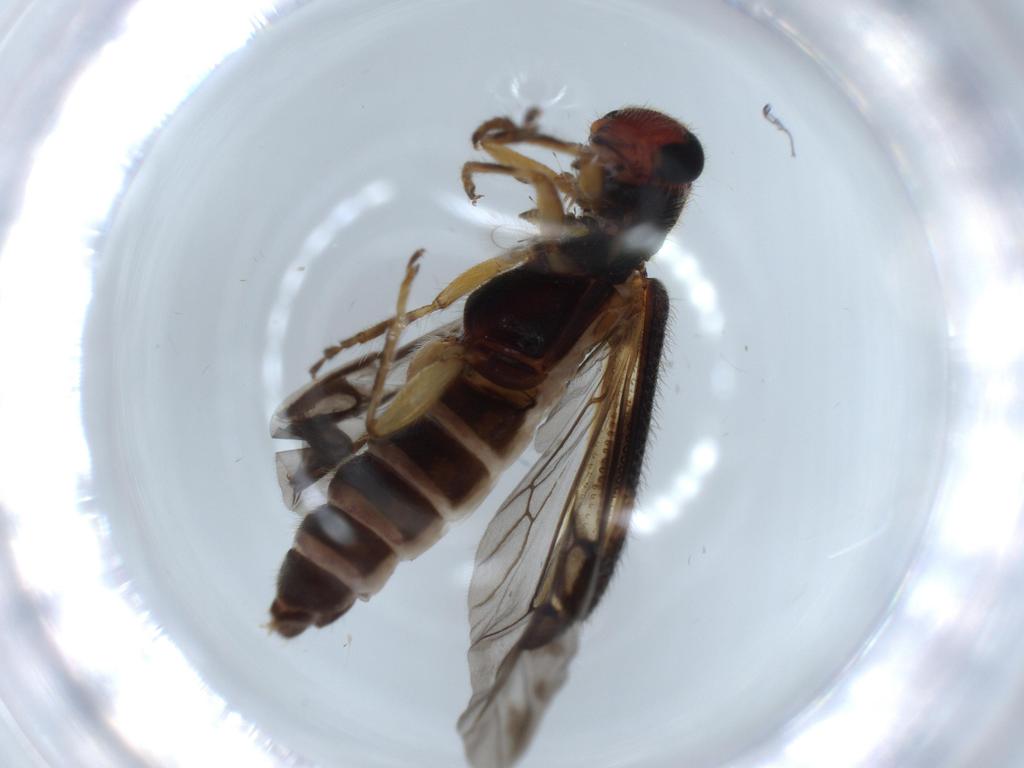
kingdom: Animalia
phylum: Arthropoda
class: Insecta
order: Coleoptera
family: Cleridae
